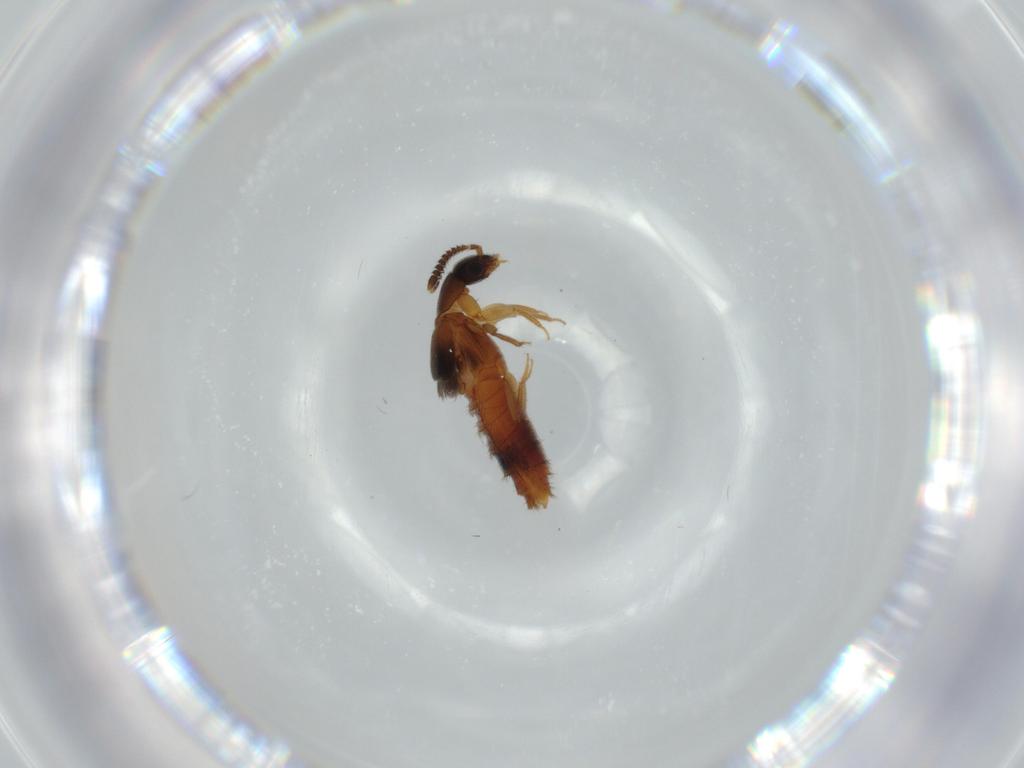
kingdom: Animalia
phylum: Arthropoda
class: Insecta
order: Coleoptera
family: Staphylinidae
